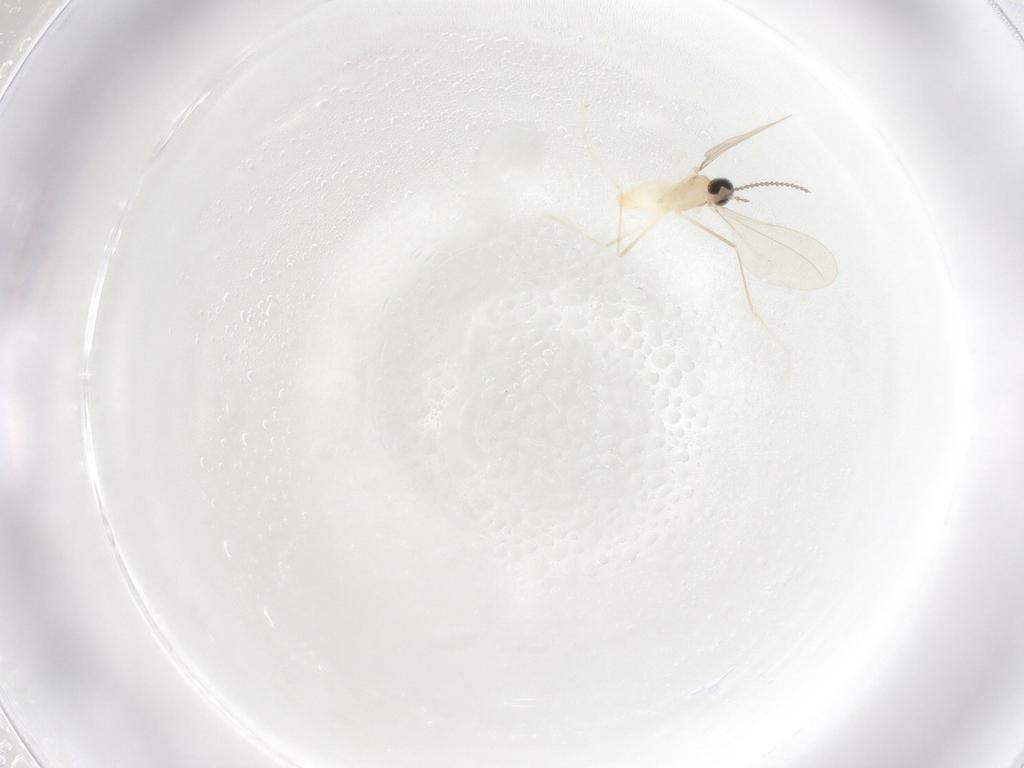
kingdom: Animalia
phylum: Arthropoda
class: Insecta
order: Diptera
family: Cecidomyiidae
